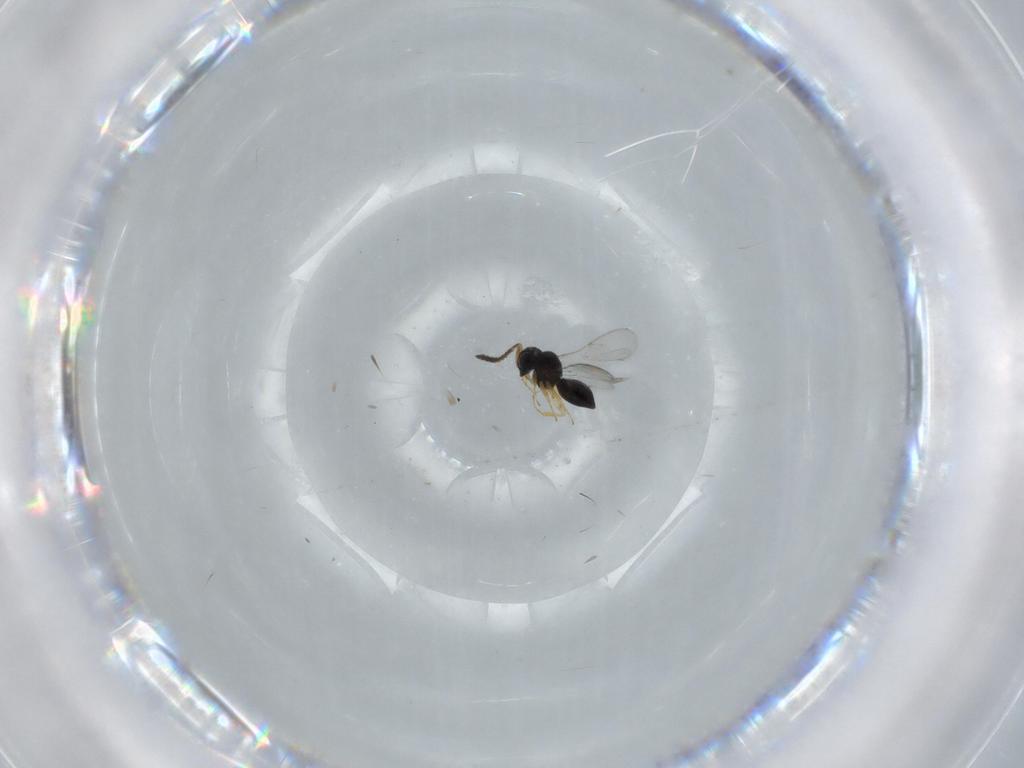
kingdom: Animalia
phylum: Arthropoda
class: Insecta
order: Hymenoptera
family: Scelionidae
